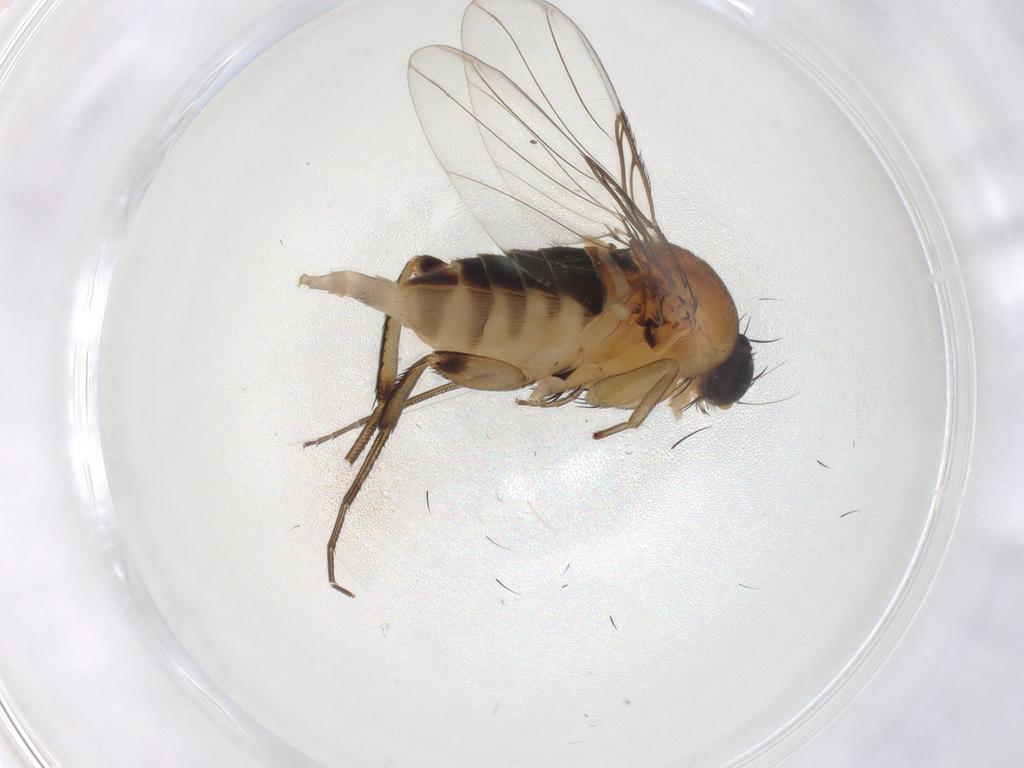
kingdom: Animalia
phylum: Arthropoda
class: Insecta
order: Diptera
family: Phoridae
